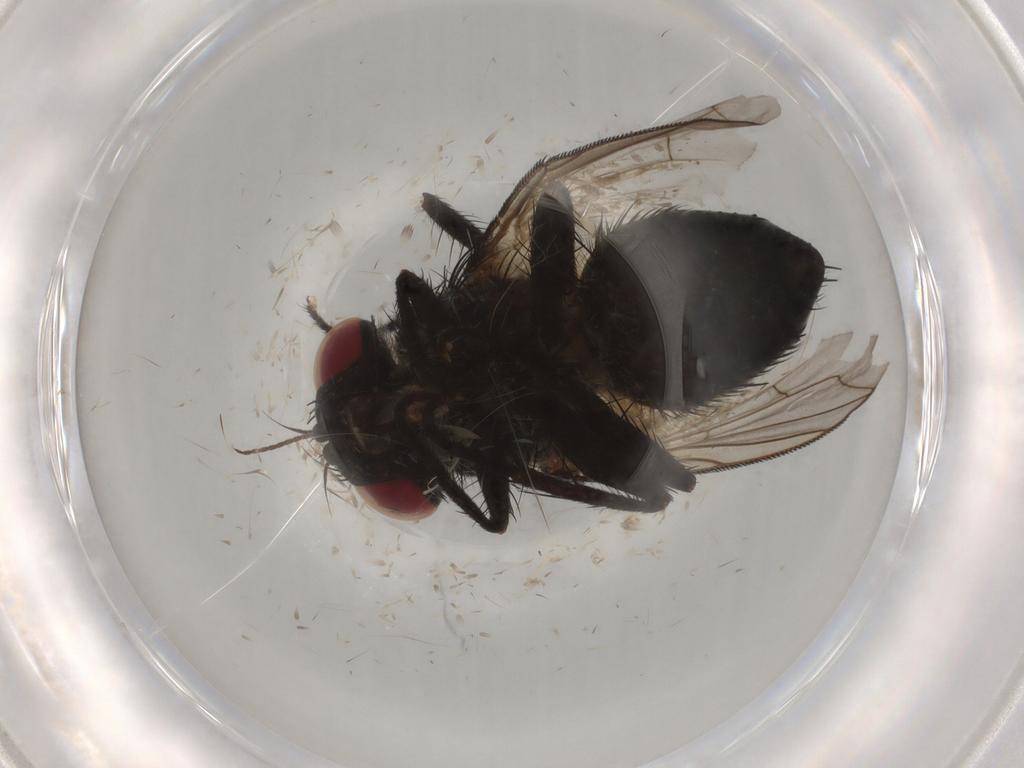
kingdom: Animalia
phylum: Arthropoda
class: Insecta
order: Diptera
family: Tachinidae
